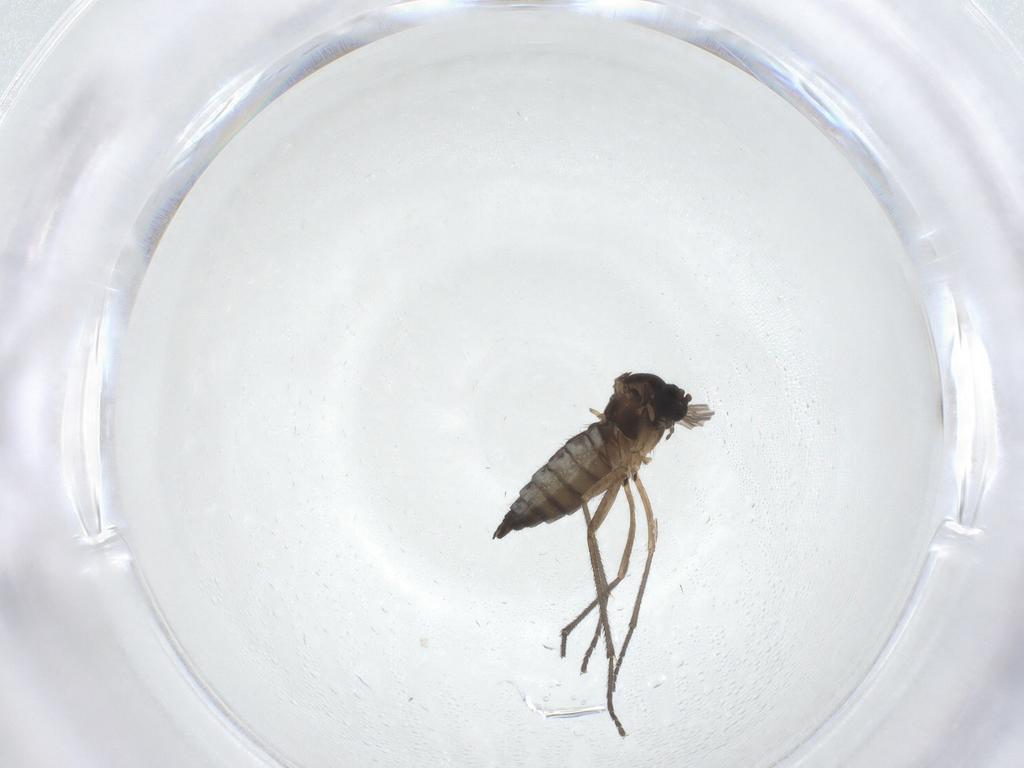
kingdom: Animalia
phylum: Arthropoda
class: Insecta
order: Diptera
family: Sciaridae
